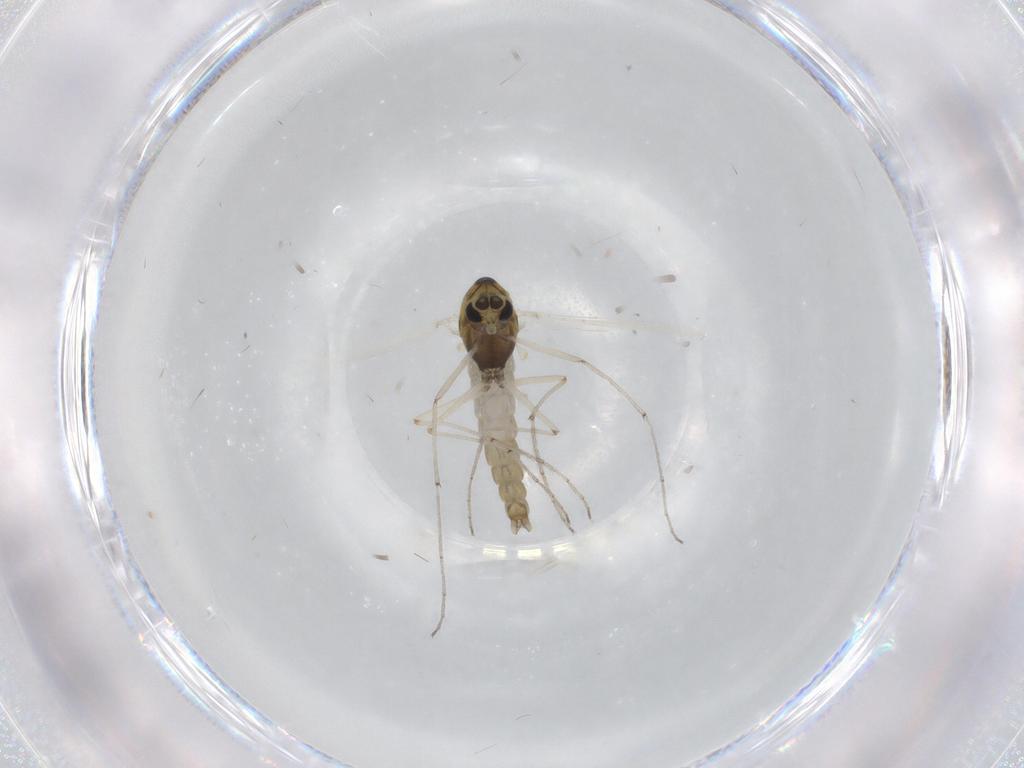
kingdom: Animalia
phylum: Arthropoda
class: Insecta
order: Diptera
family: Chironomidae
